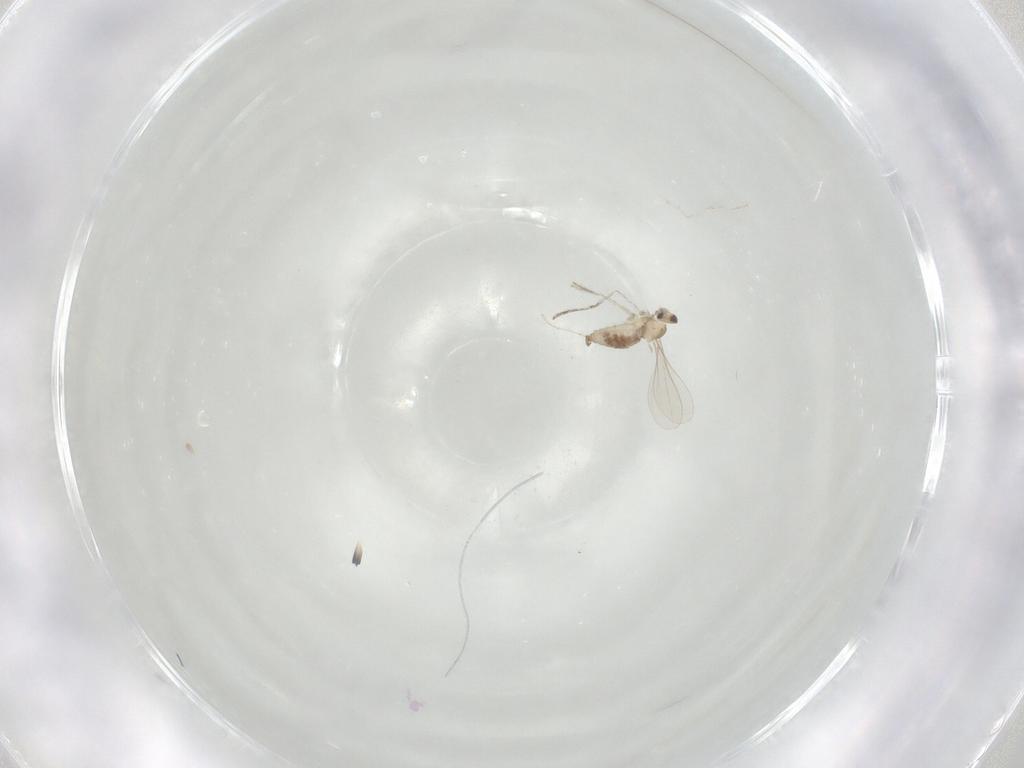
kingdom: Animalia
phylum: Arthropoda
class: Insecta
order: Diptera
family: Cecidomyiidae
